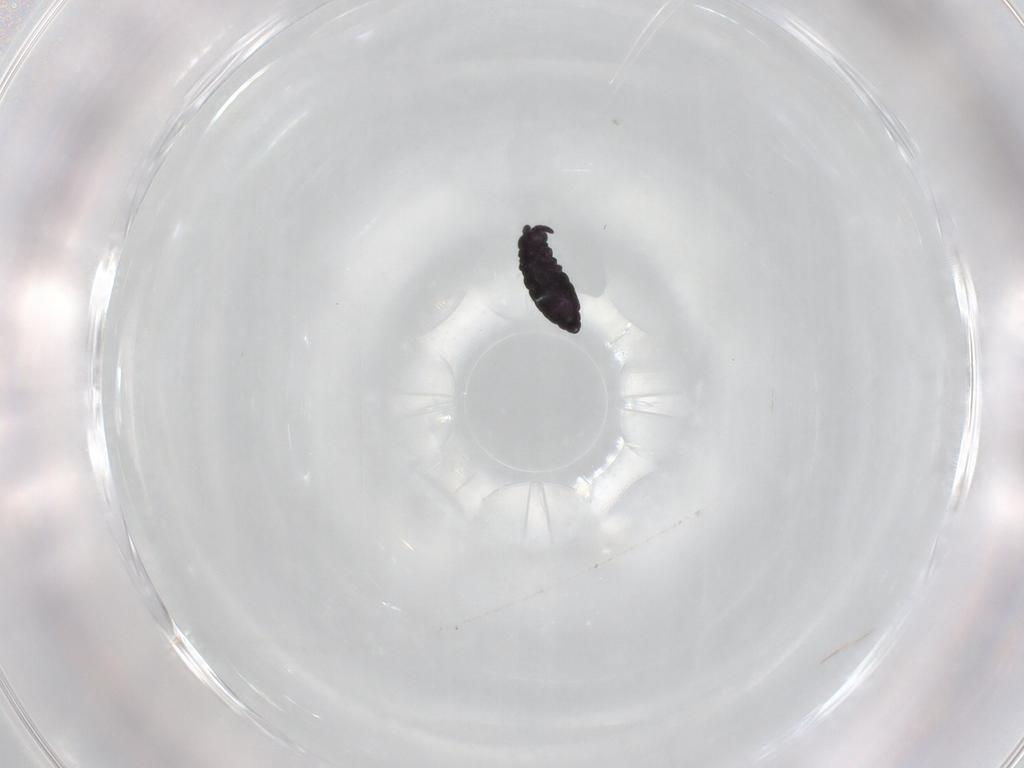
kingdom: Animalia
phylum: Arthropoda
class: Collembola
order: Poduromorpha
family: Hypogastruridae
